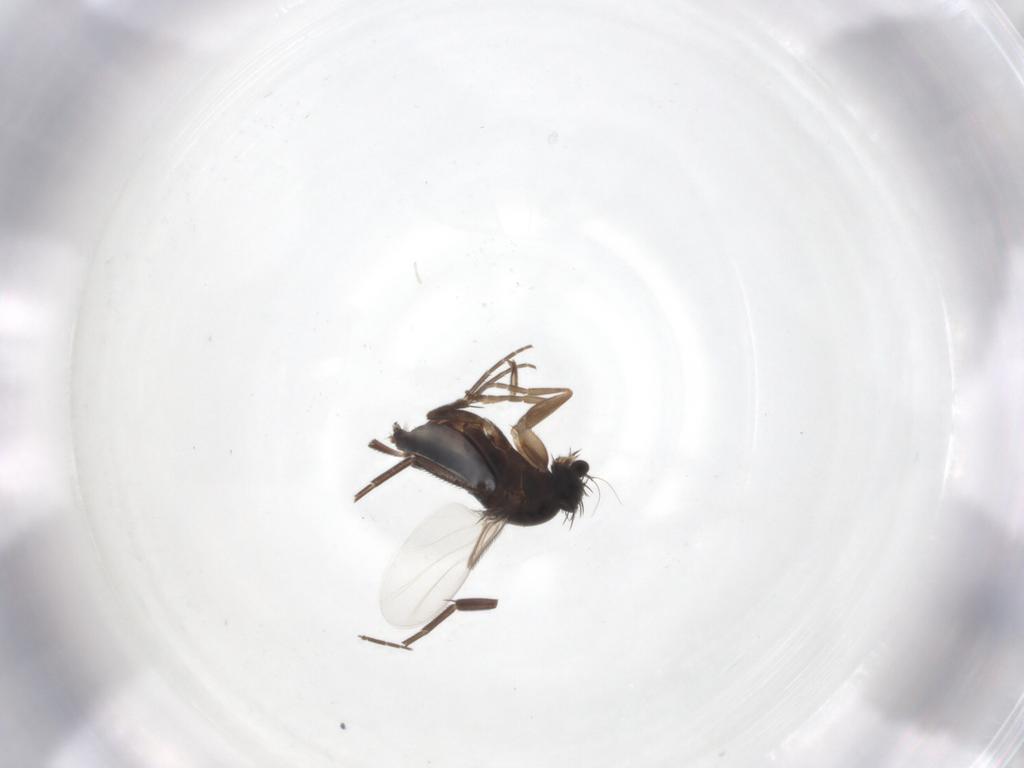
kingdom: Animalia
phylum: Arthropoda
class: Insecta
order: Diptera
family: Phoridae
